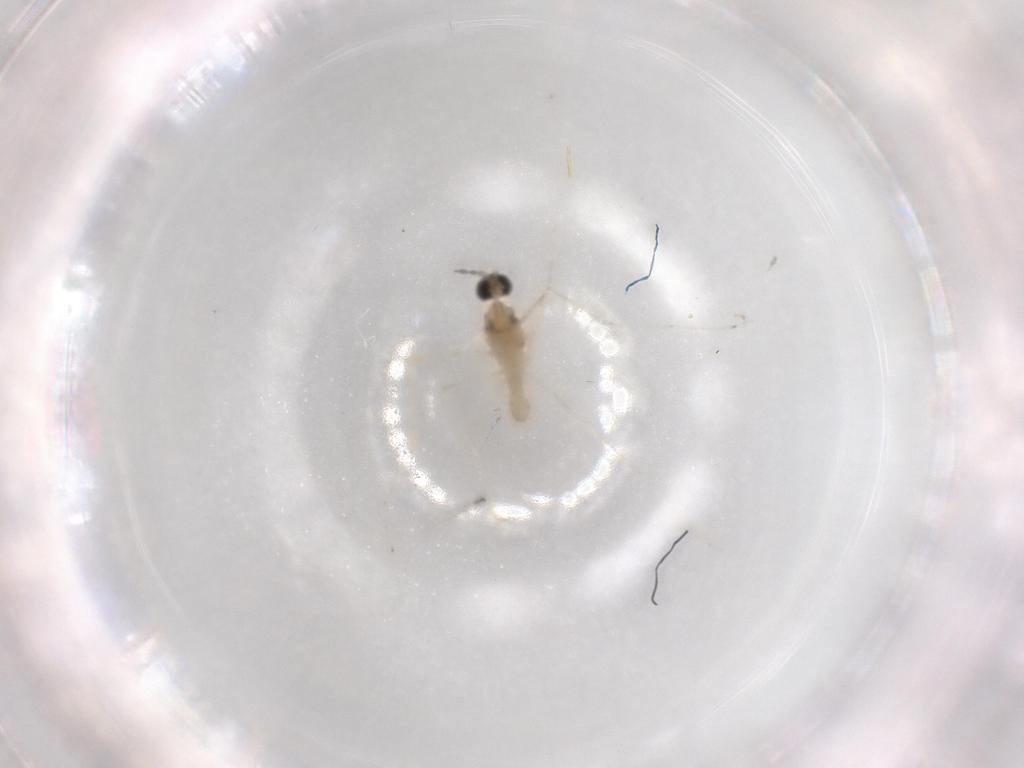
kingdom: Animalia
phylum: Arthropoda
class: Insecta
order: Diptera
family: Cecidomyiidae
